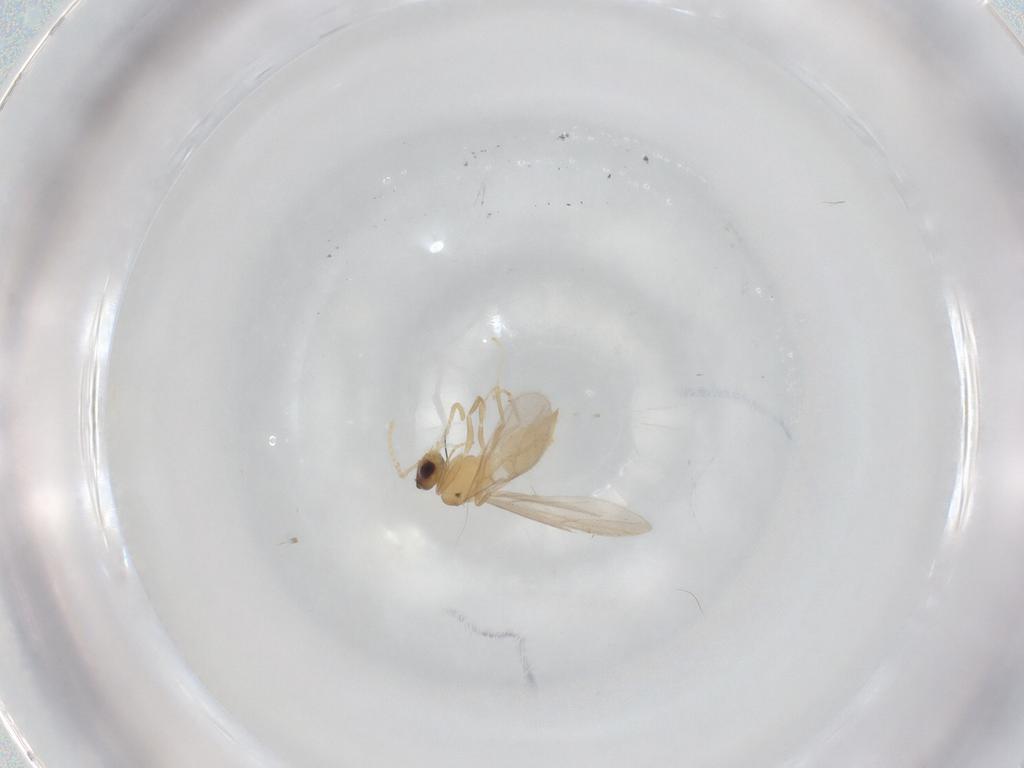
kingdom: Animalia
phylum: Arthropoda
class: Insecta
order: Hymenoptera
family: Formicidae
